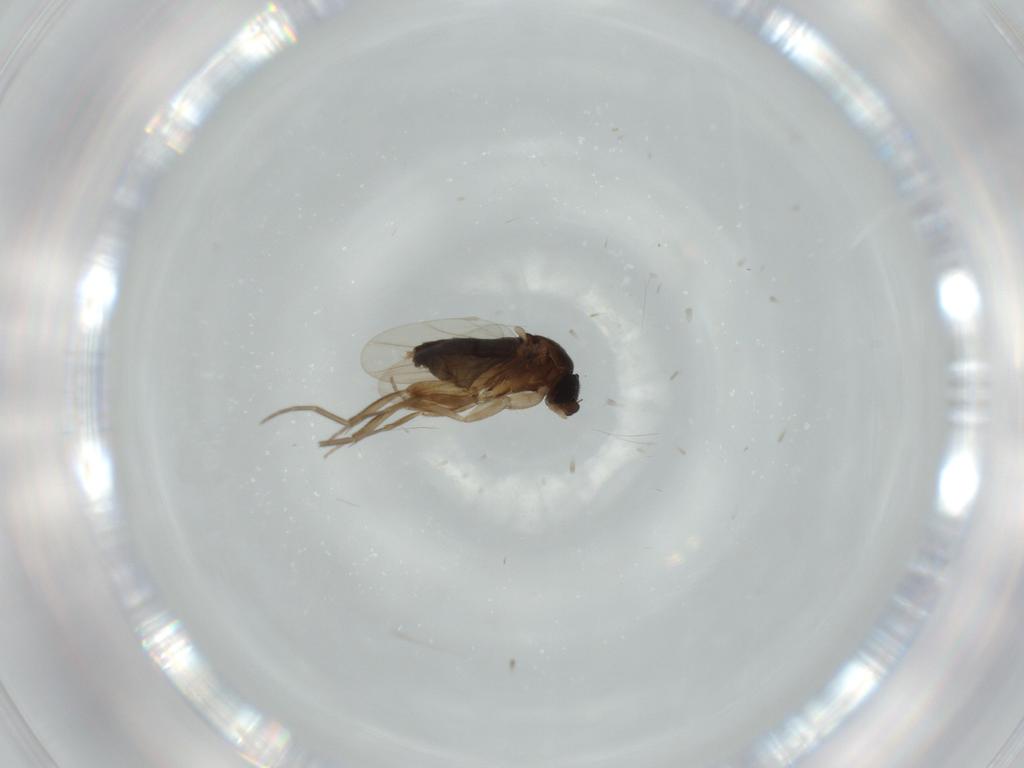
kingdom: Animalia
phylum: Arthropoda
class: Insecta
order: Diptera
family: Phoridae
